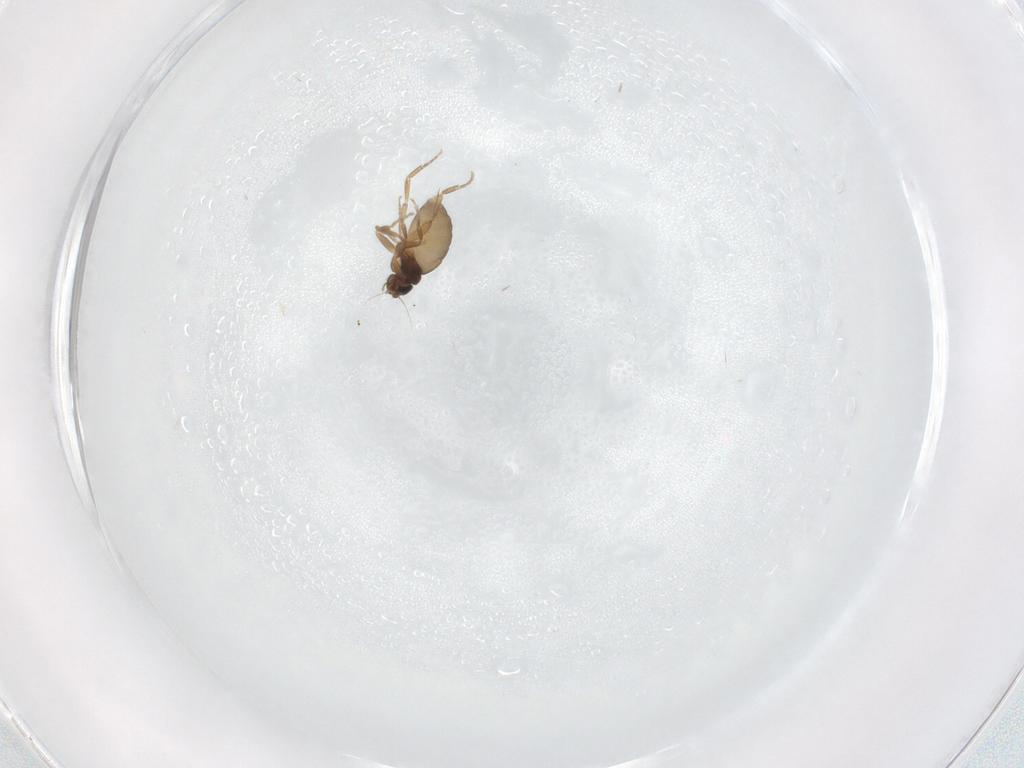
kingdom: Animalia
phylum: Arthropoda
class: Insecta
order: Diptera
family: Phoridae
